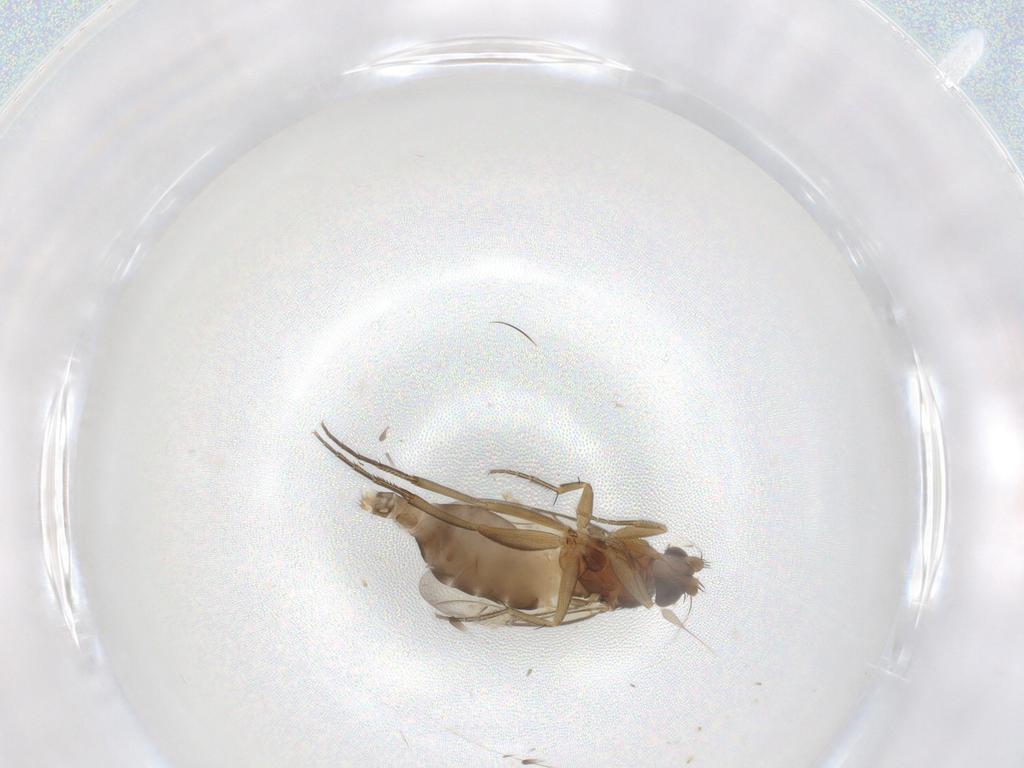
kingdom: Animalia
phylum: Arthropoda
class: Insecta
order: Diptera
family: Phoridae
